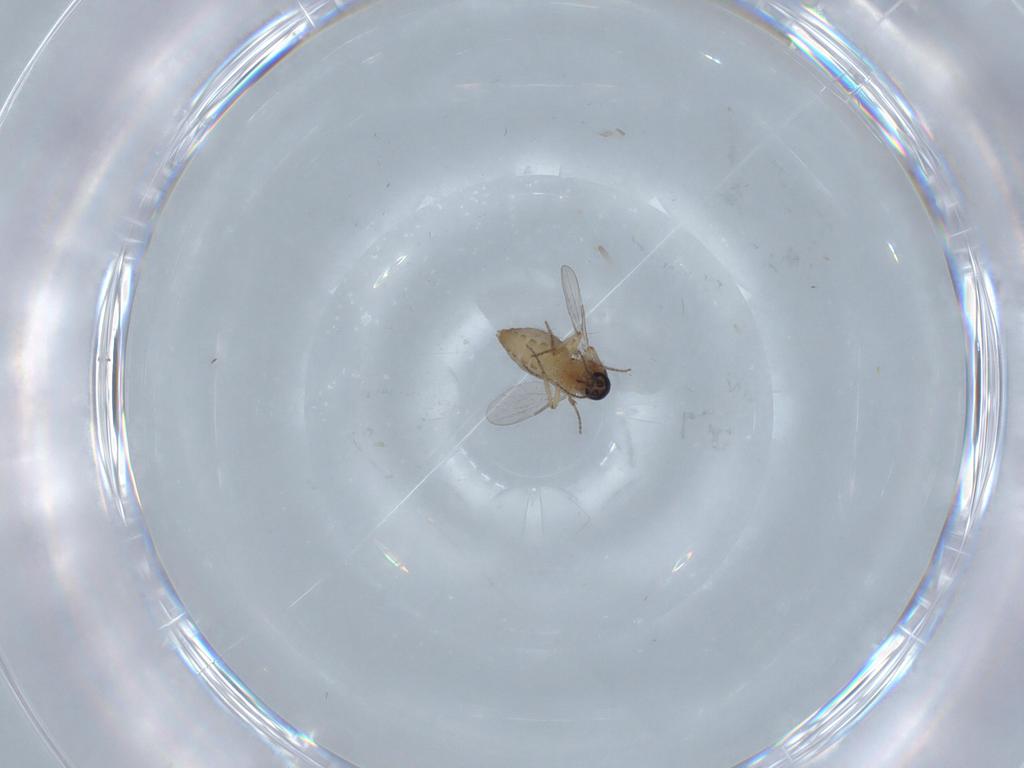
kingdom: Animalia
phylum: Arthropoda
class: Insecta
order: Diptera
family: Ceratopogonidae
